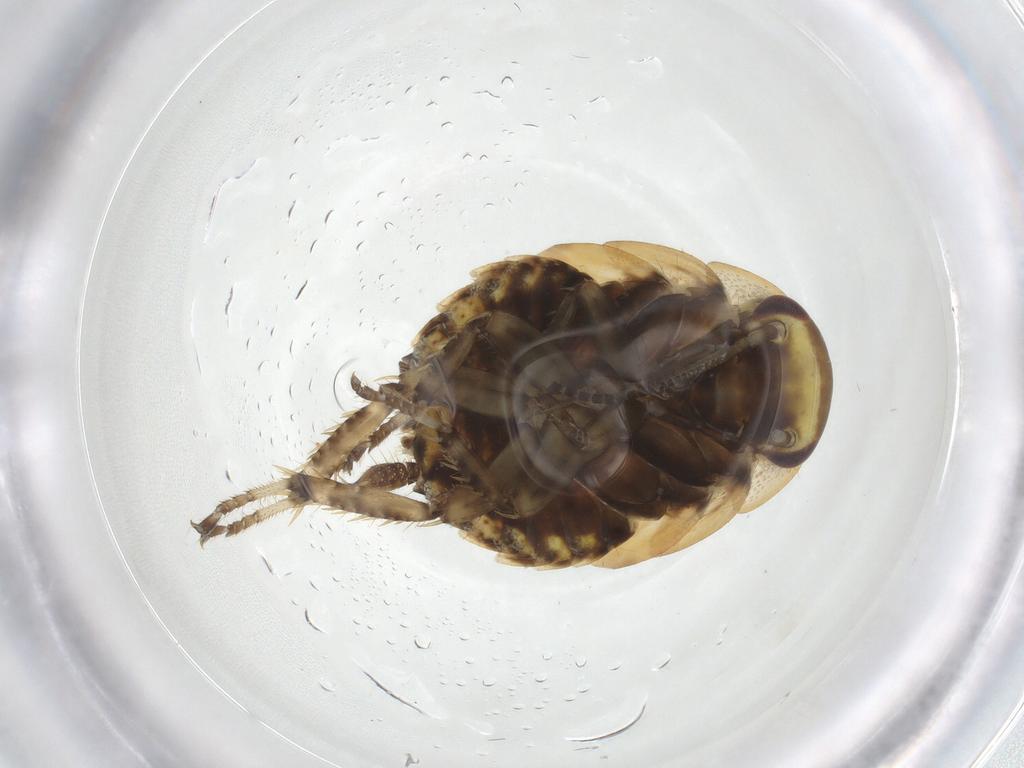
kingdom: Animalia
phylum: Arthropoda
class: Insecta
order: Blattodea
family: Ectobiidae
